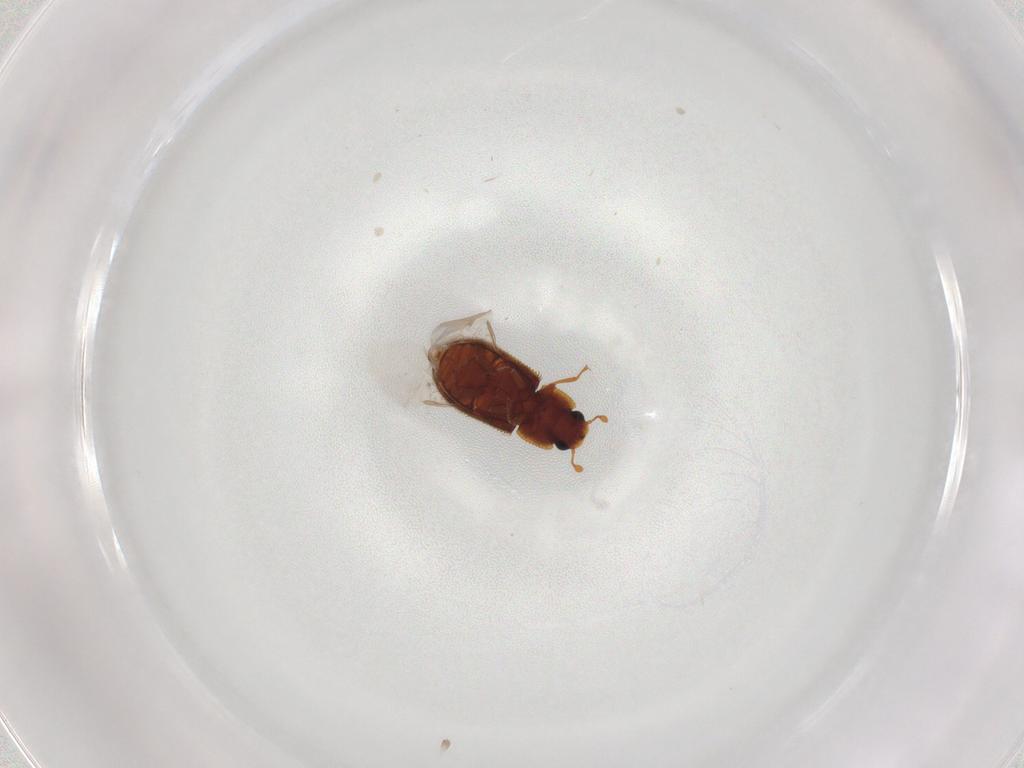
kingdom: Animalia
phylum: Arthropoda
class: Insecta
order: Coleoptera
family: Zopheridae
